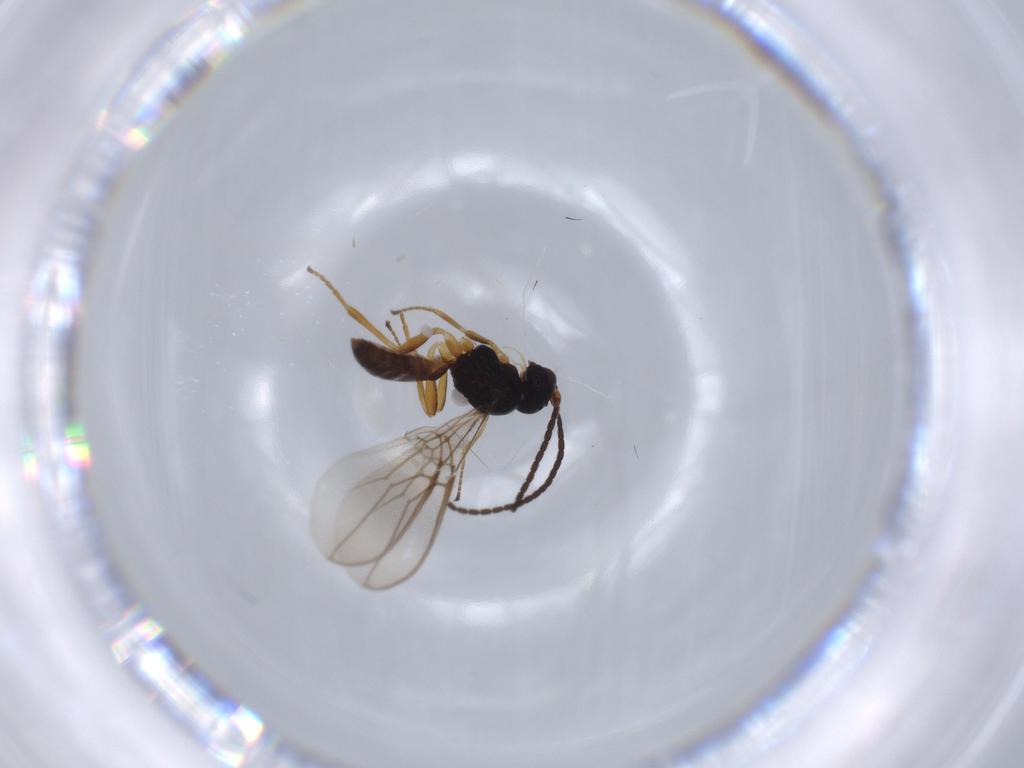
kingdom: Animalia
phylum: Arthropoda
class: Insecta
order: Hymenoptera
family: Braconidae
